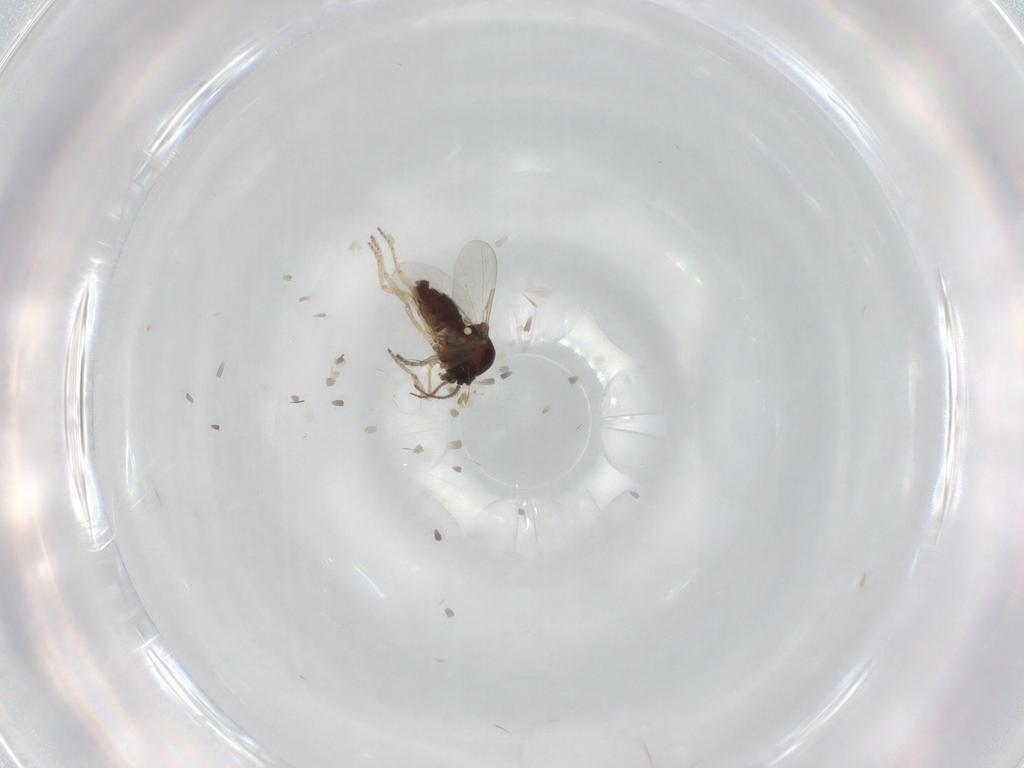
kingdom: Animalia
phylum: Arthropoda
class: Insecta
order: Diptera
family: Ceratopogonidae
